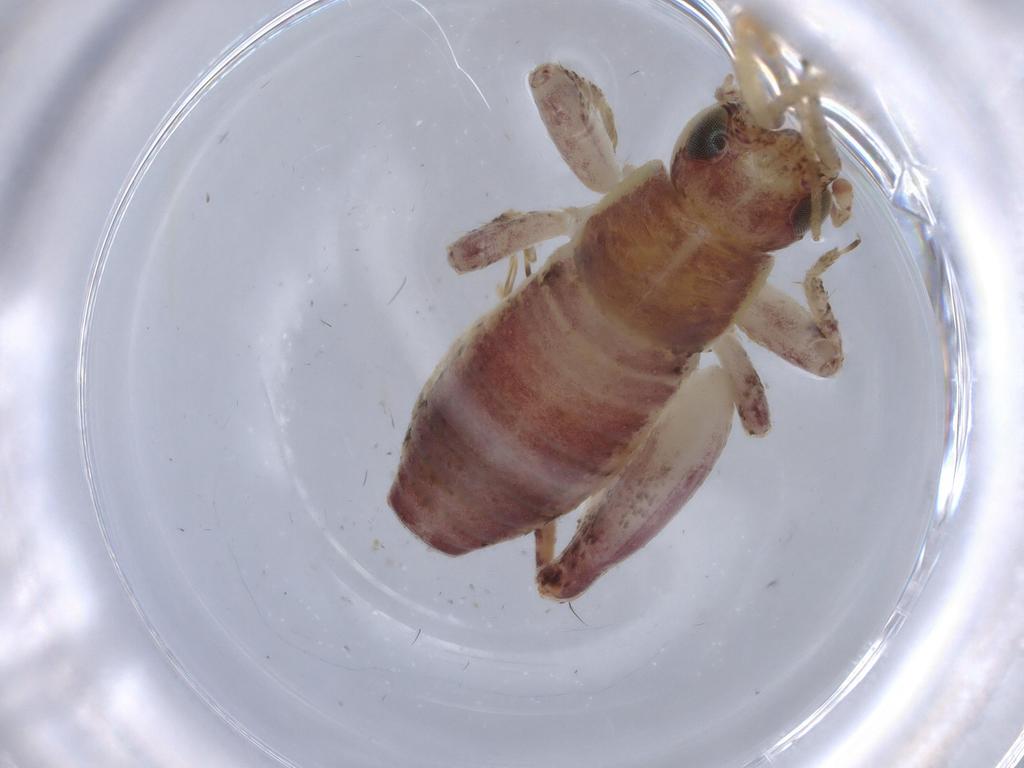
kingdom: Animalia
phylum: Arthropoda
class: Insecta
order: Orthoptera
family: Mogoplistidae
